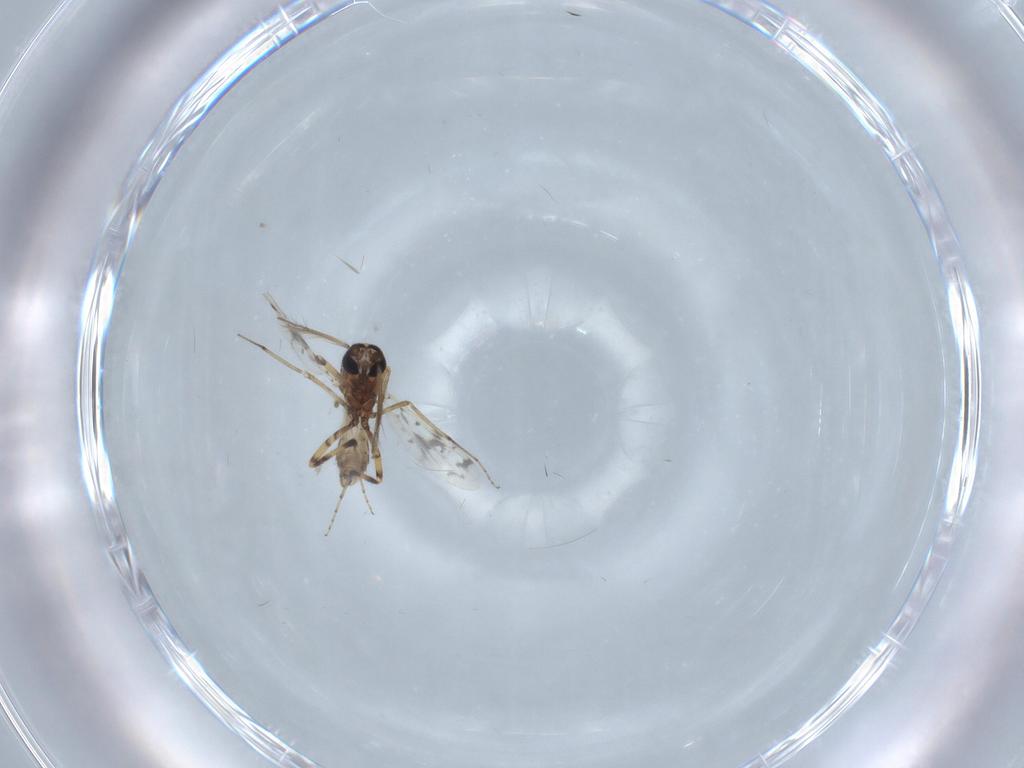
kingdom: Animalia
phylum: Arthropoda
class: Insecta
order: Diptera
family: Ceratopogonidae
